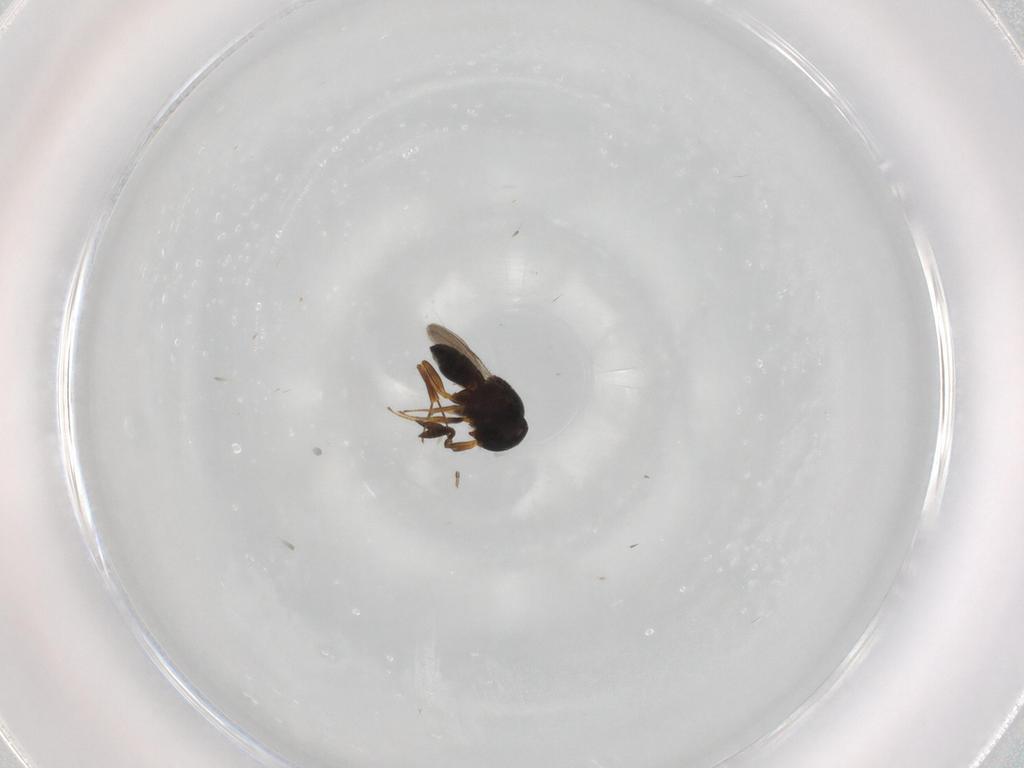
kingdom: Animalia
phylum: Arthropoda
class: Insecta
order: Coleoptera
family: Curculionidae
